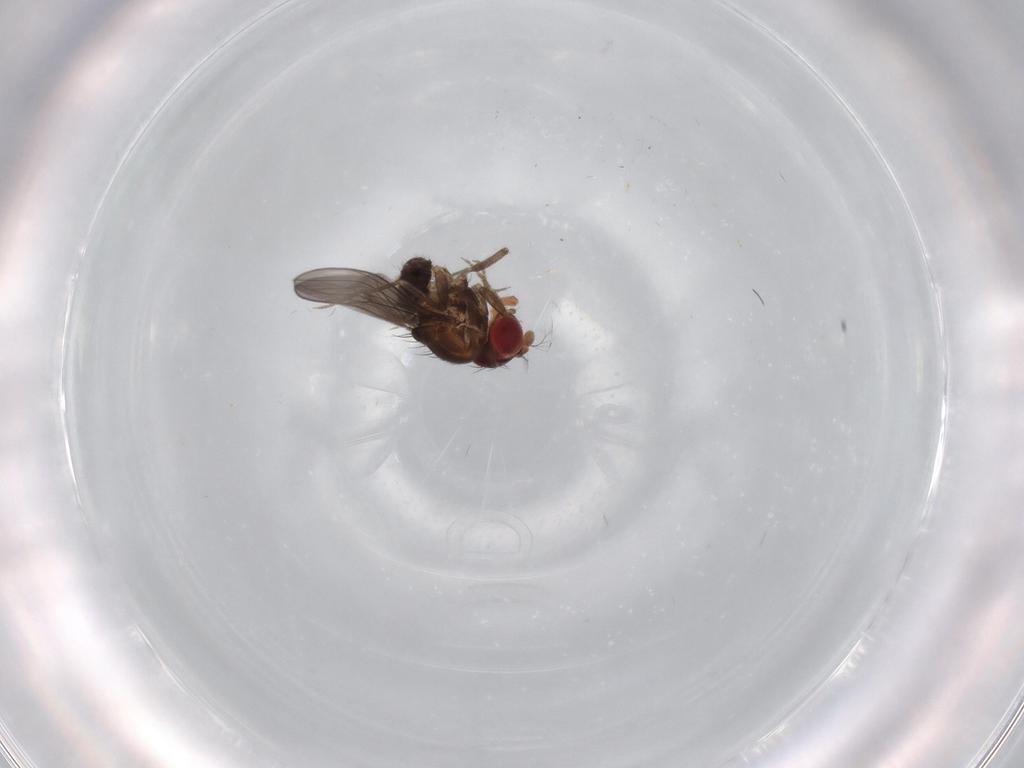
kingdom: Animalia
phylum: Arthropoda
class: Insecta
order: Diptera
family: Drosophilidae
